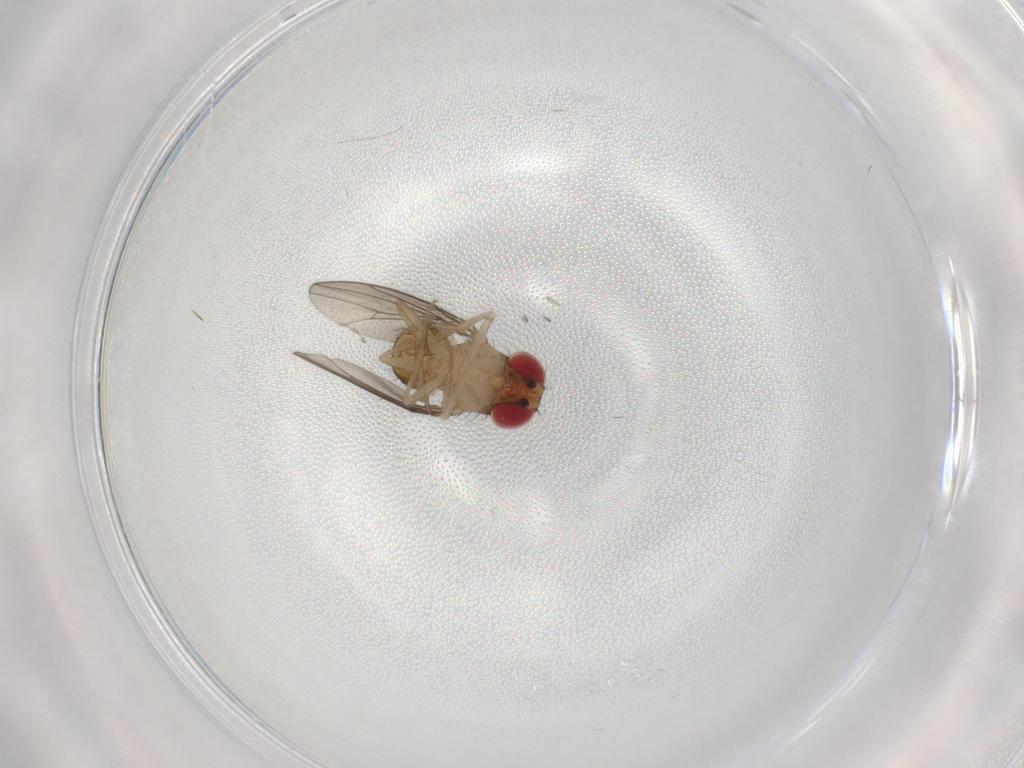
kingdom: Animalia
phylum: Arthropoda
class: Insecta
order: Diptera
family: Drosophilidae
